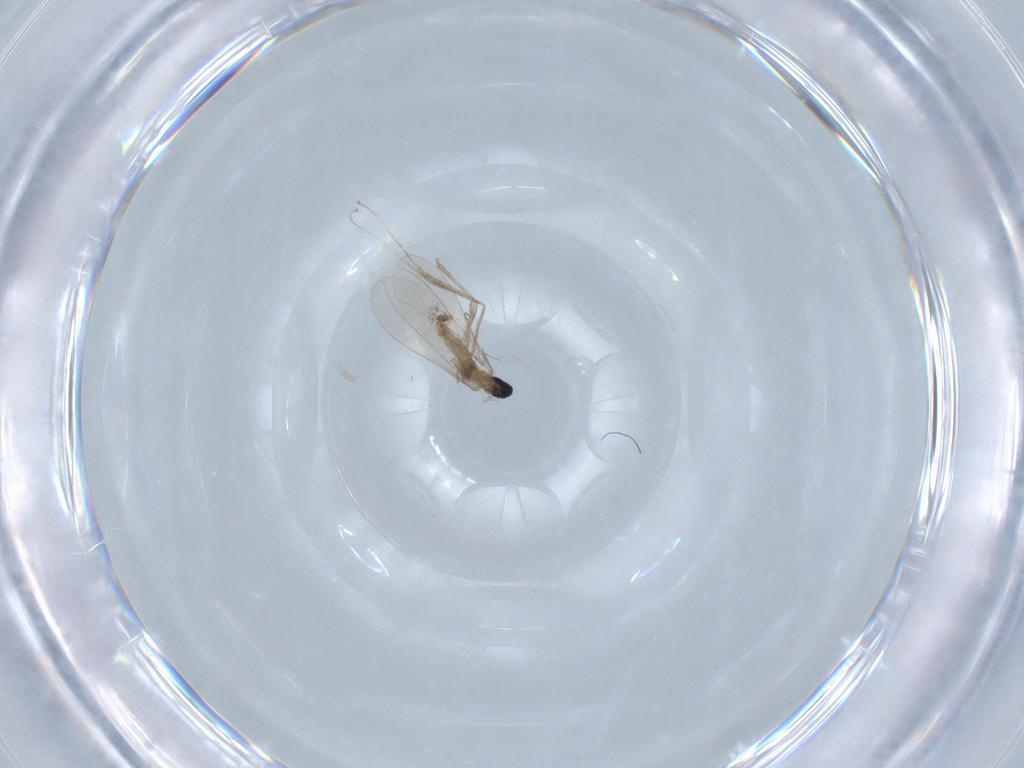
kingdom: Animalia
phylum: Arthropoda
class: Insecta
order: Diptera
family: Cecidomyiidae
